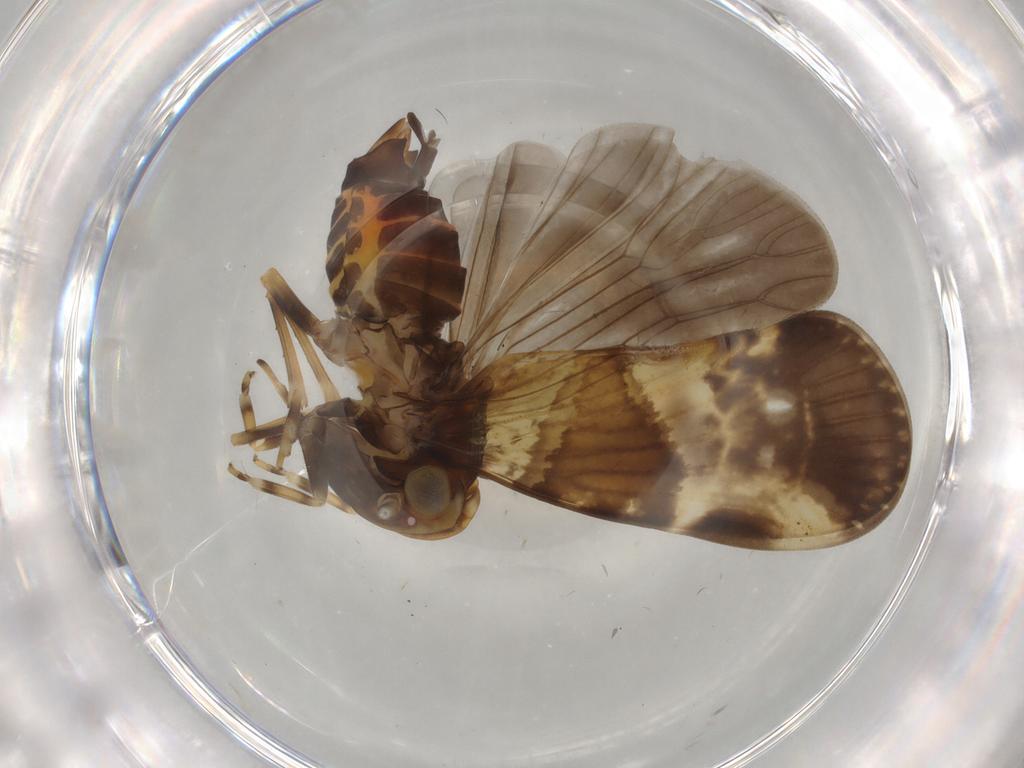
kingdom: Animalia
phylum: Arthropoda
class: Insecta
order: Hemiptera
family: Cixiidae
